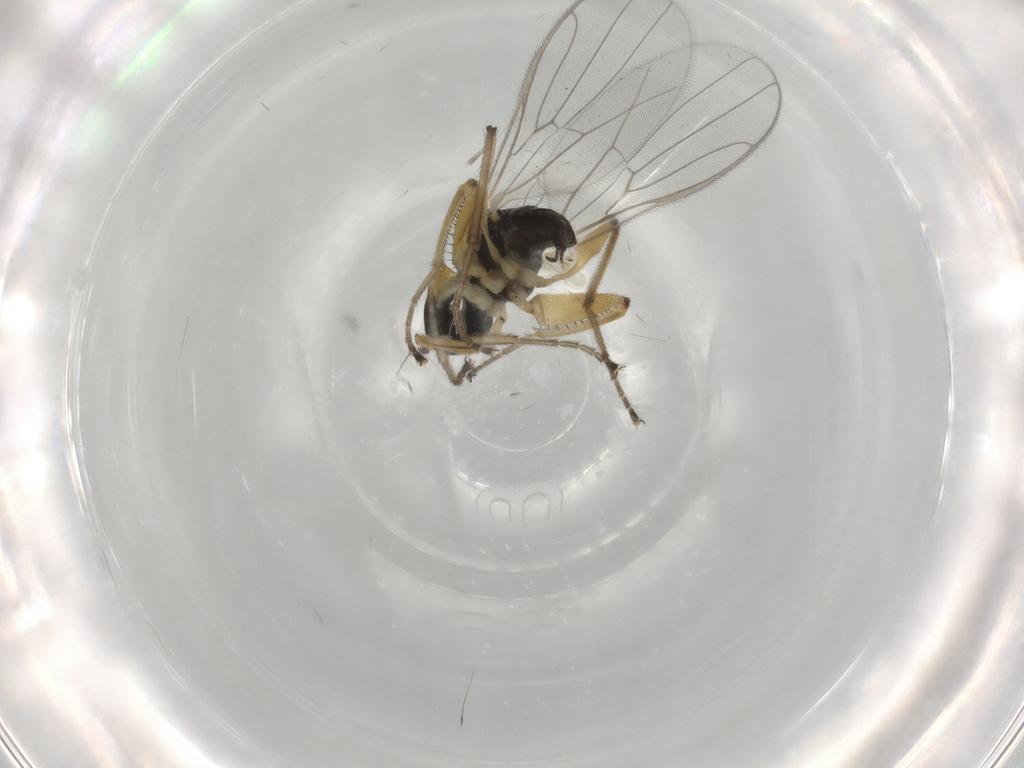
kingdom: Animalia
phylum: Arthropoda
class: Insecta
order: Diptera
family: Hybotidae
